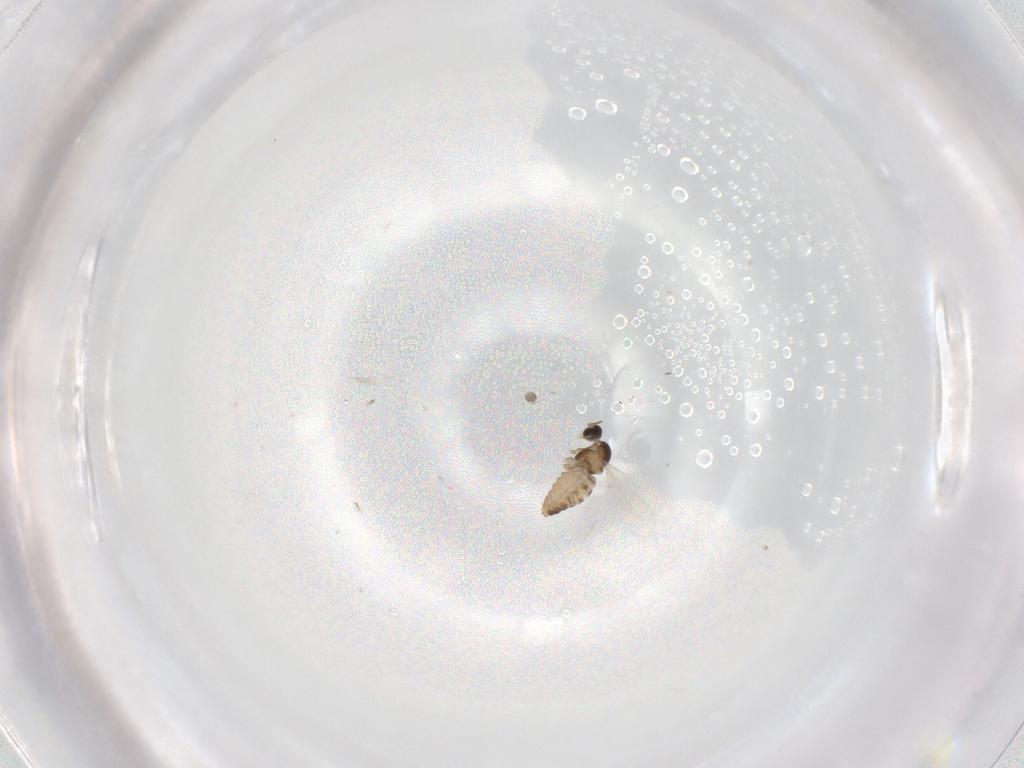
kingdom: Animalia
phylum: Arthropoda
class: Insecta
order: Diptera
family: Cecidomyiidae
